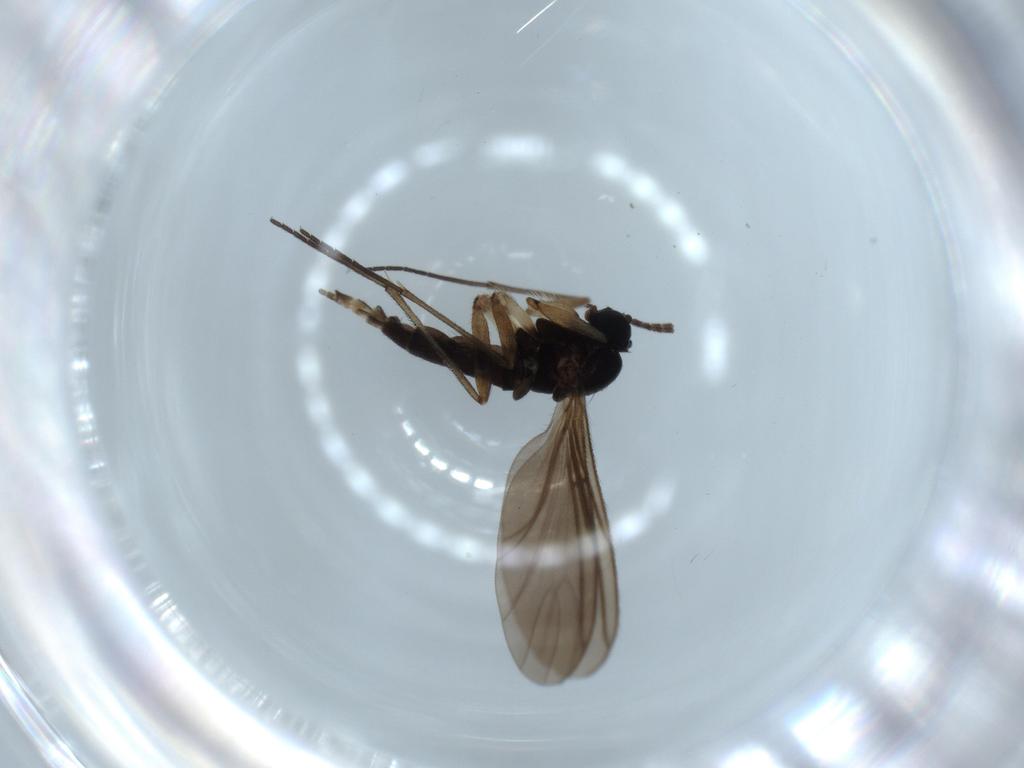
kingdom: Animalia
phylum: Arthropoda
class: Insecta
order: Diptera
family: Sciaridae
